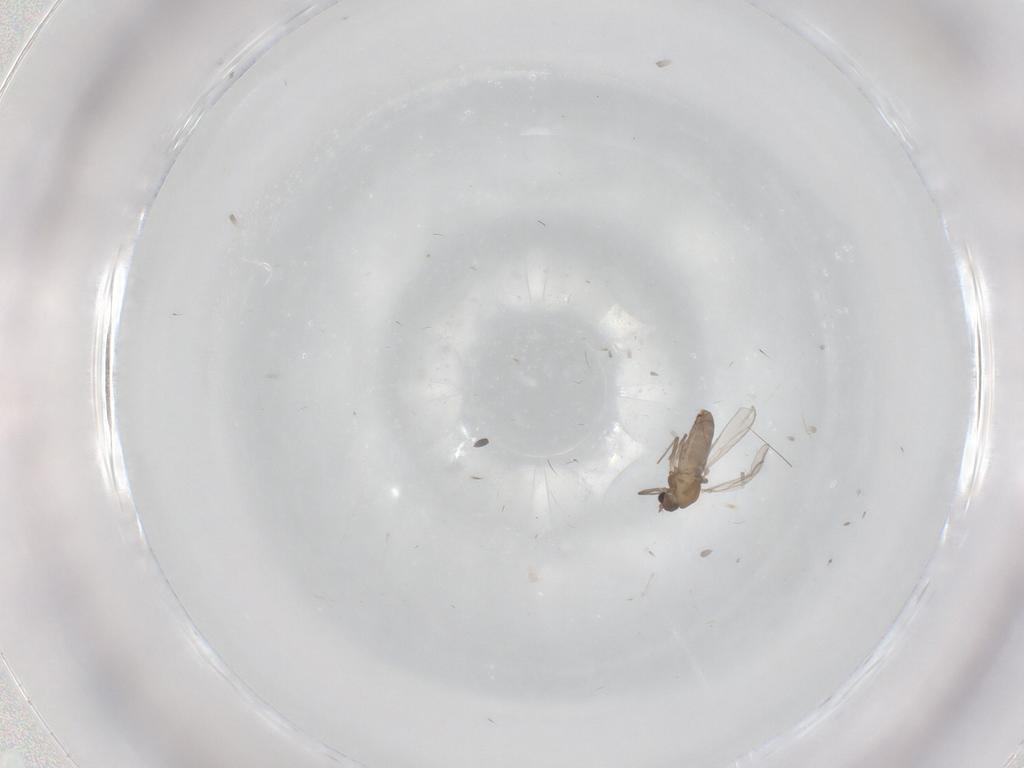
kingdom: Animalia
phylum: Arthropoda
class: Insecta
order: Diptera
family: Chironomidae
